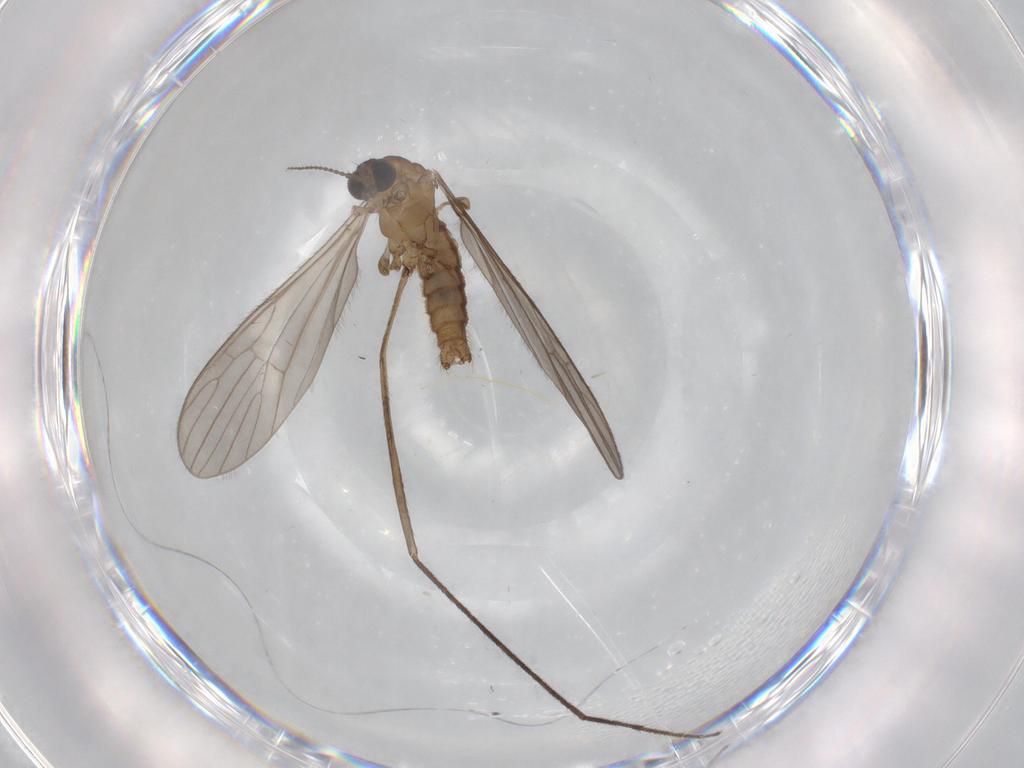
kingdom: Animalia
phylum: Arthropoda
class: Insecta
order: Diptera
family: Limoniidae
